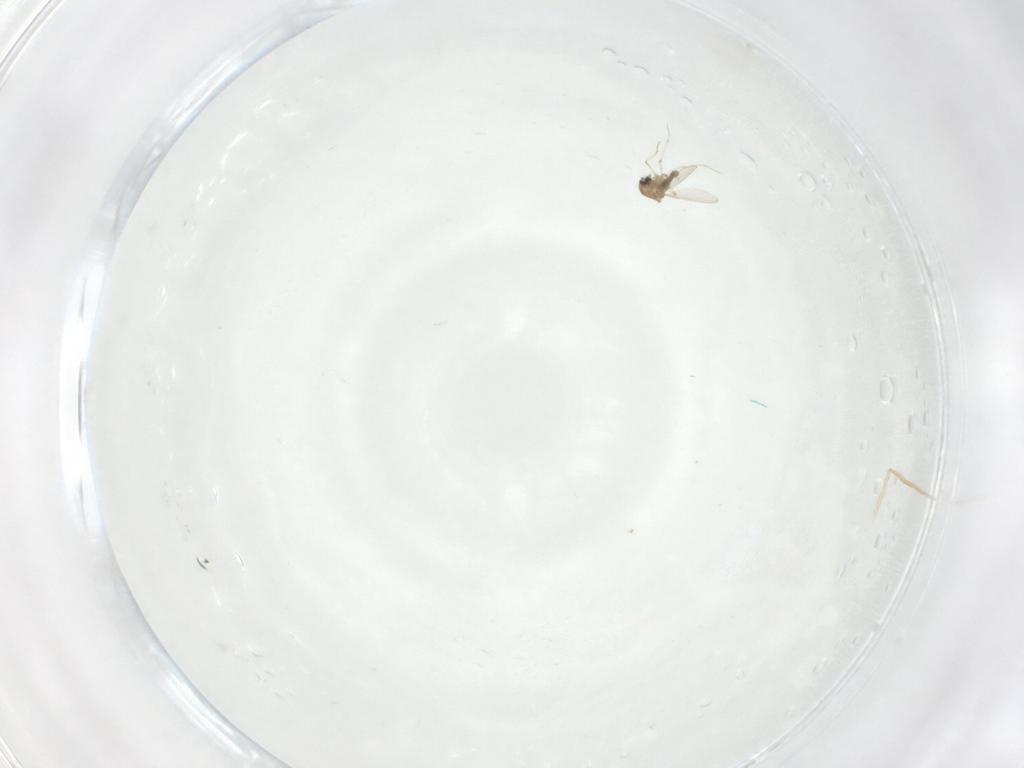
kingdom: Animalia
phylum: Arthropoda
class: Insecta
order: Diptera
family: Ceratopogonidae
